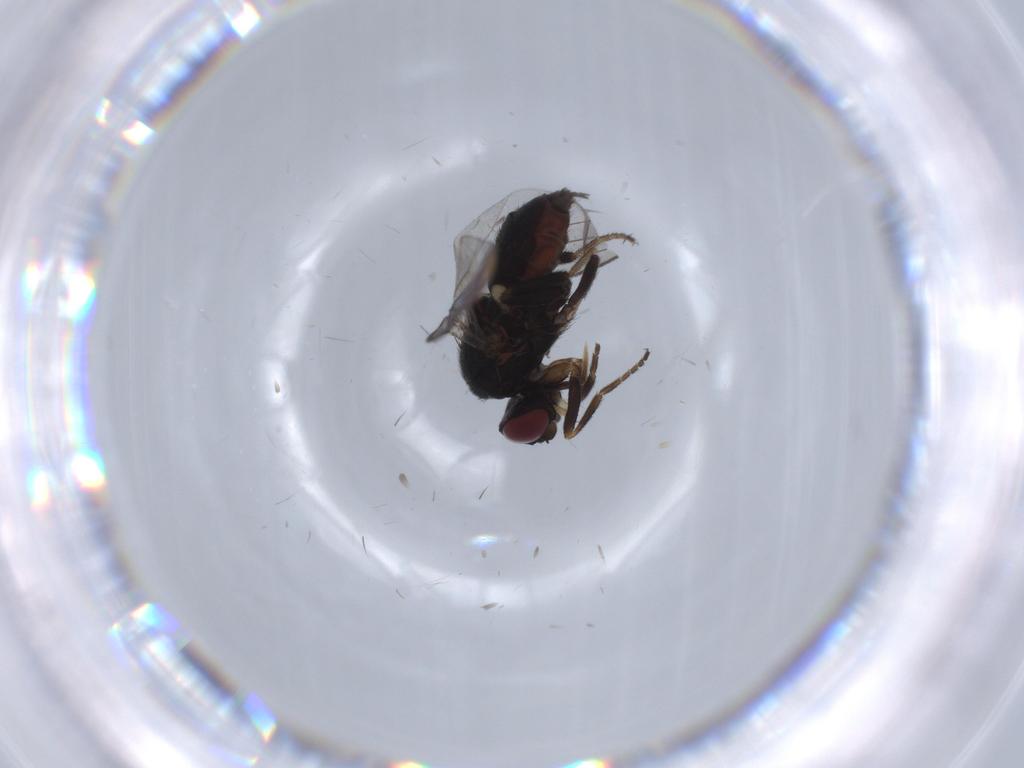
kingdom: Animalia
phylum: Arthropoda
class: Insecta
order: Diptera
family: Milichiidae
